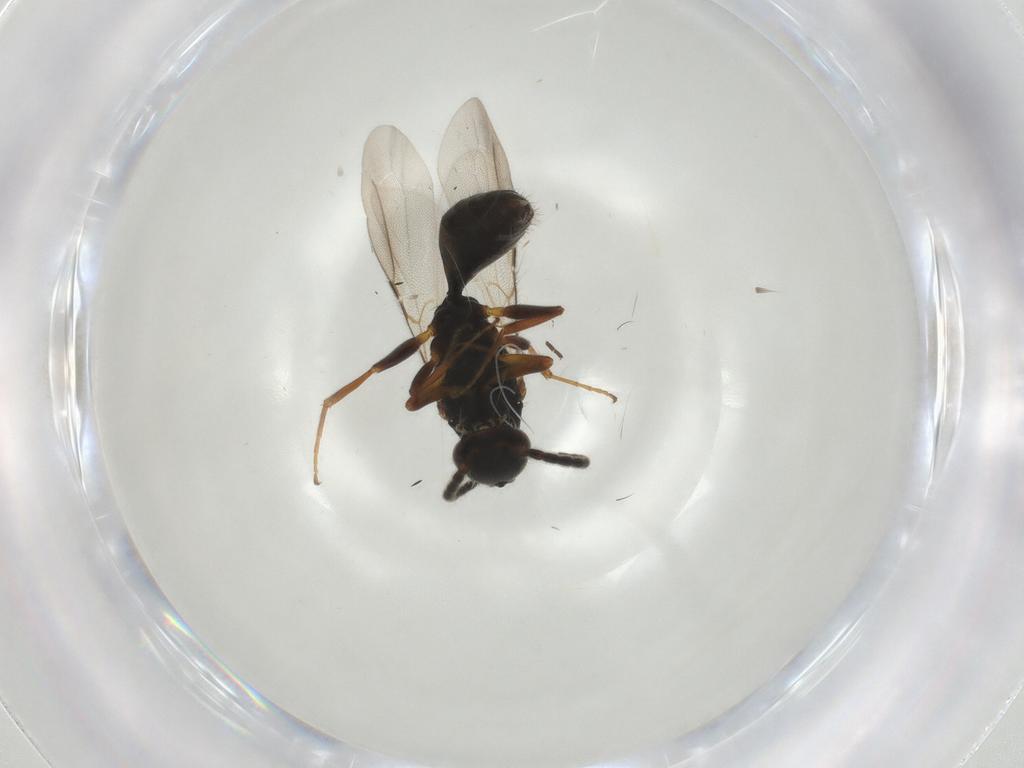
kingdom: Animalia
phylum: Arthropoda
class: Insecta
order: Hymenoptera
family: Bethylidae
